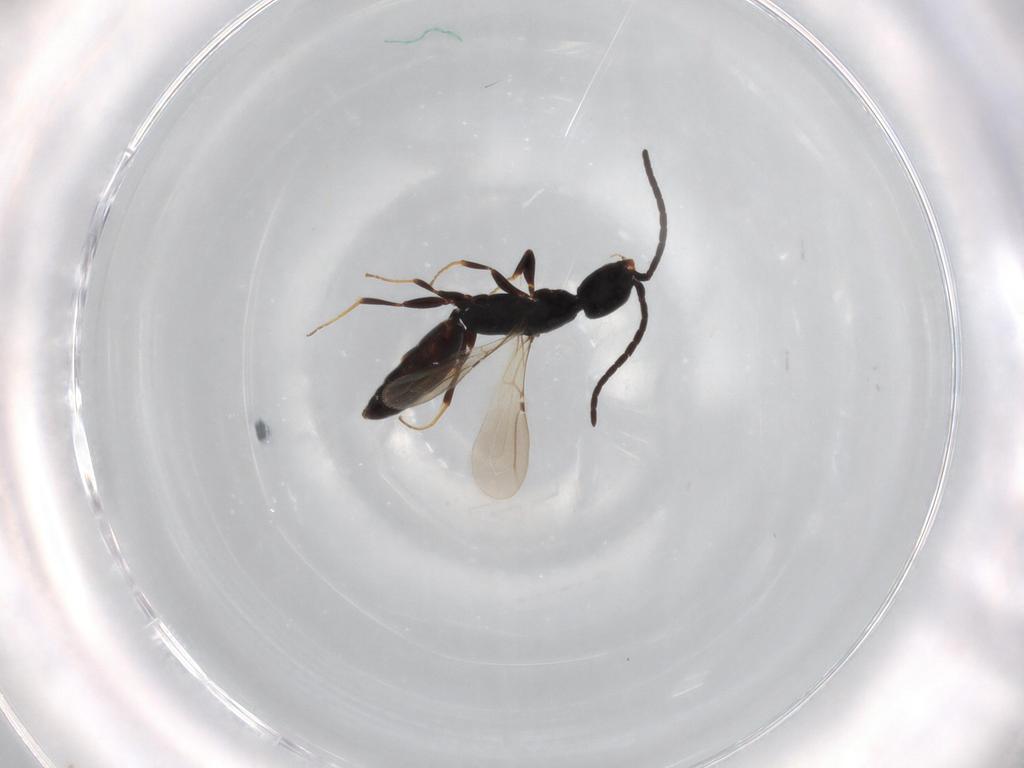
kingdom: Animalia
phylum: Arthropoda
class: Insecta
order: Hymenoptera
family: Bethylidae
